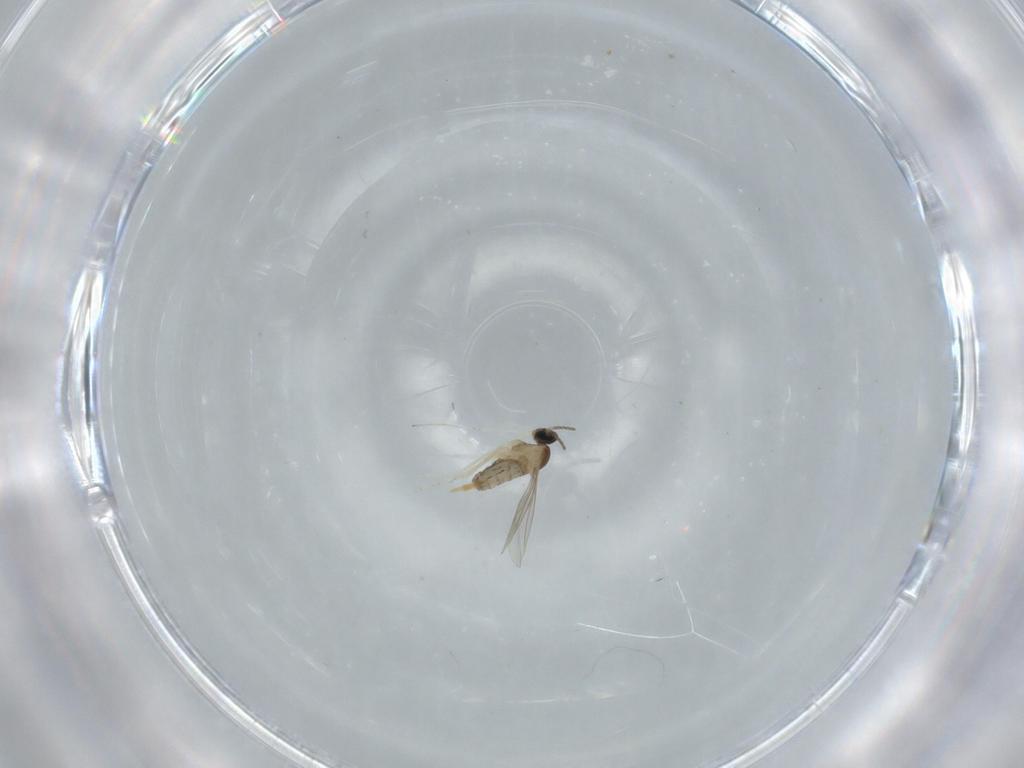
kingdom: Animalia
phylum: Arthropoda
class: Insecta
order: Diptera
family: Cecidomyiidae
